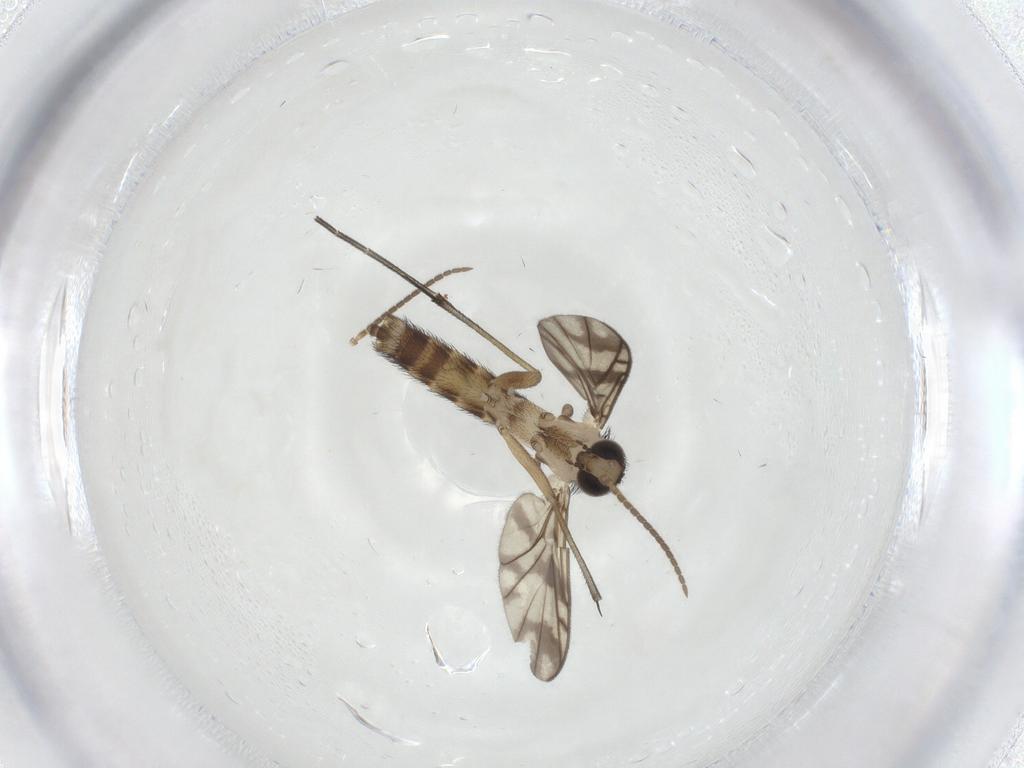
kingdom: Animalia
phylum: Arthropoda
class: Insecta
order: Diptera
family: Keroplatidae
